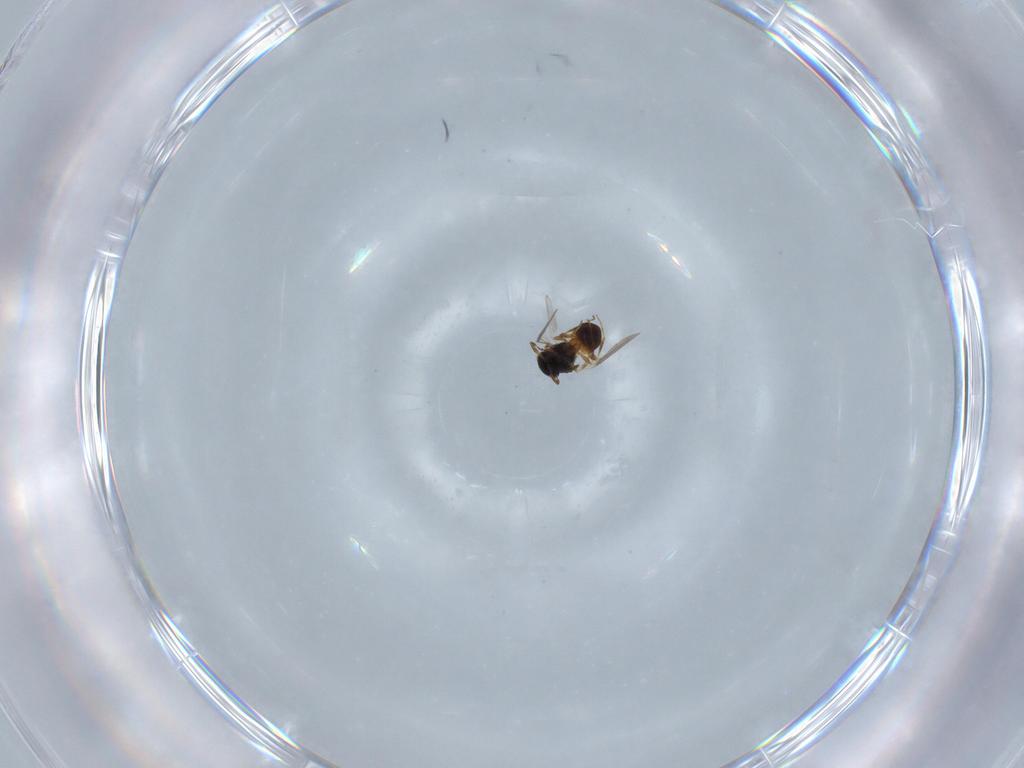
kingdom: Animalia
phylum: Arthropoda
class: Insecta
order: Hymenoptera
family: Platygastridae
